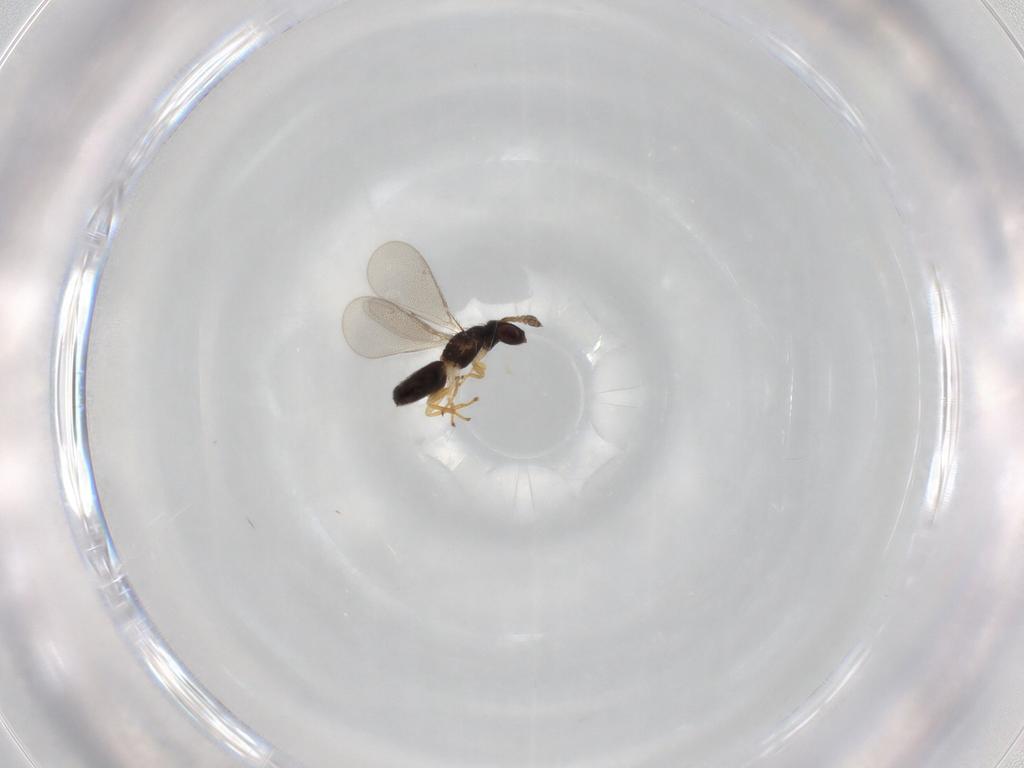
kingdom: Animalia
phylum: Arthropoda
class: Insecta
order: Hymenoptera
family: Eulophidae
